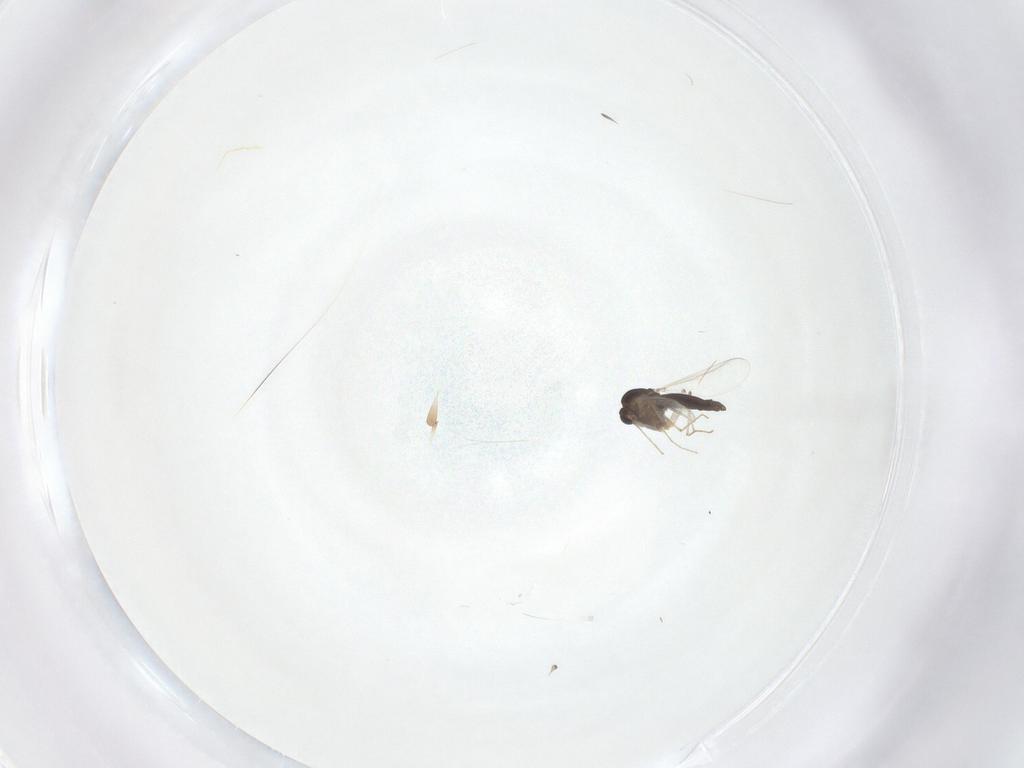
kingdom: Animalia
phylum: Arthropoda
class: Insecta
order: Diptera
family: Chironomidae
